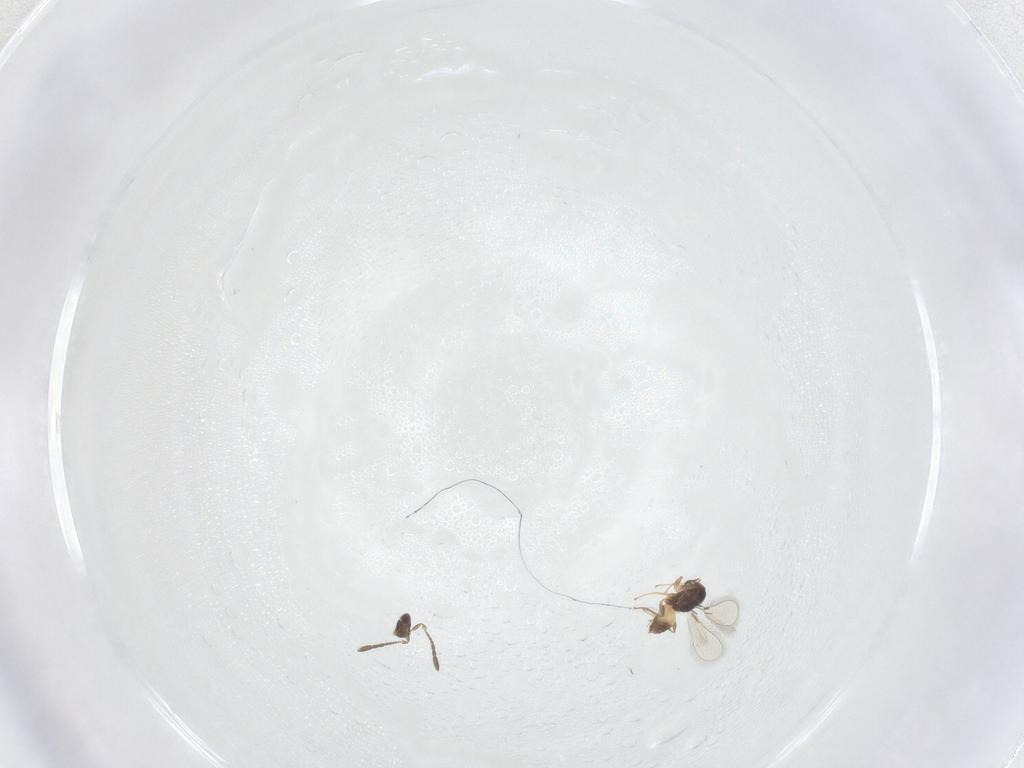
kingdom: Animalia
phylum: Arthropoda
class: Insecta
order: Hymenoptera
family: Mymaridae
